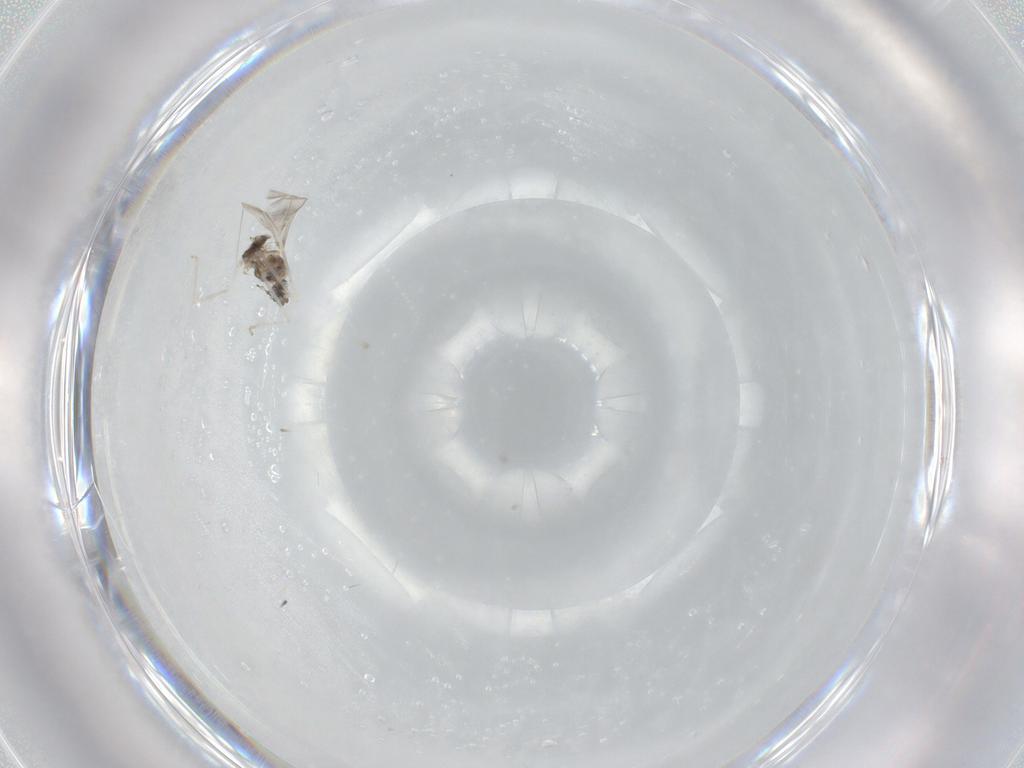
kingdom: Animalia
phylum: Arthropoda
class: Insecta
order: Diptera
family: Cecidomyiidae
